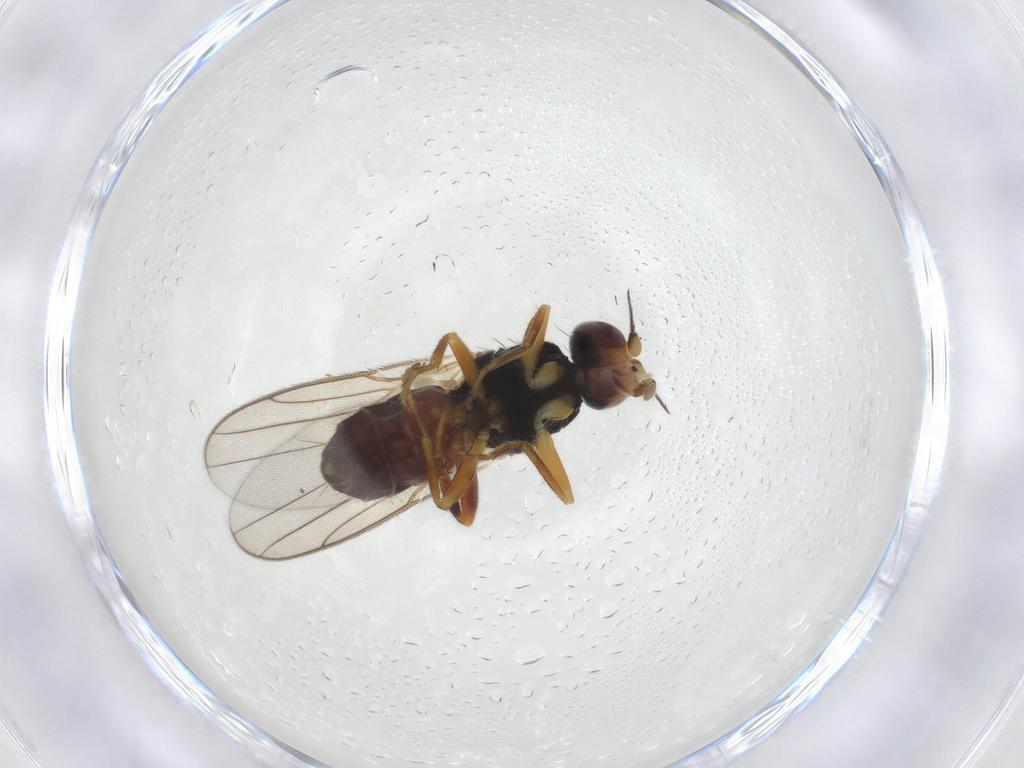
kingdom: Animalia
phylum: Arthropoda
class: Insecta
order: Diptera
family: Chloropidae
